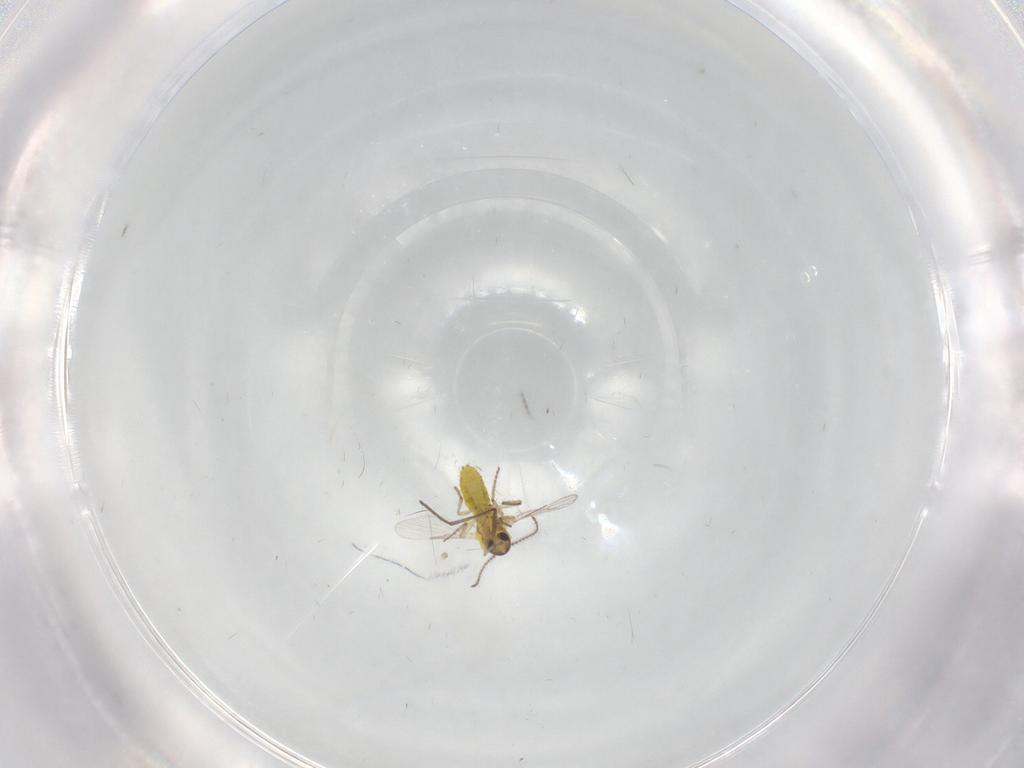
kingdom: Animalia
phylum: Arthropoda
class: Insecta
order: Diptera
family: Ceratopogonidae
